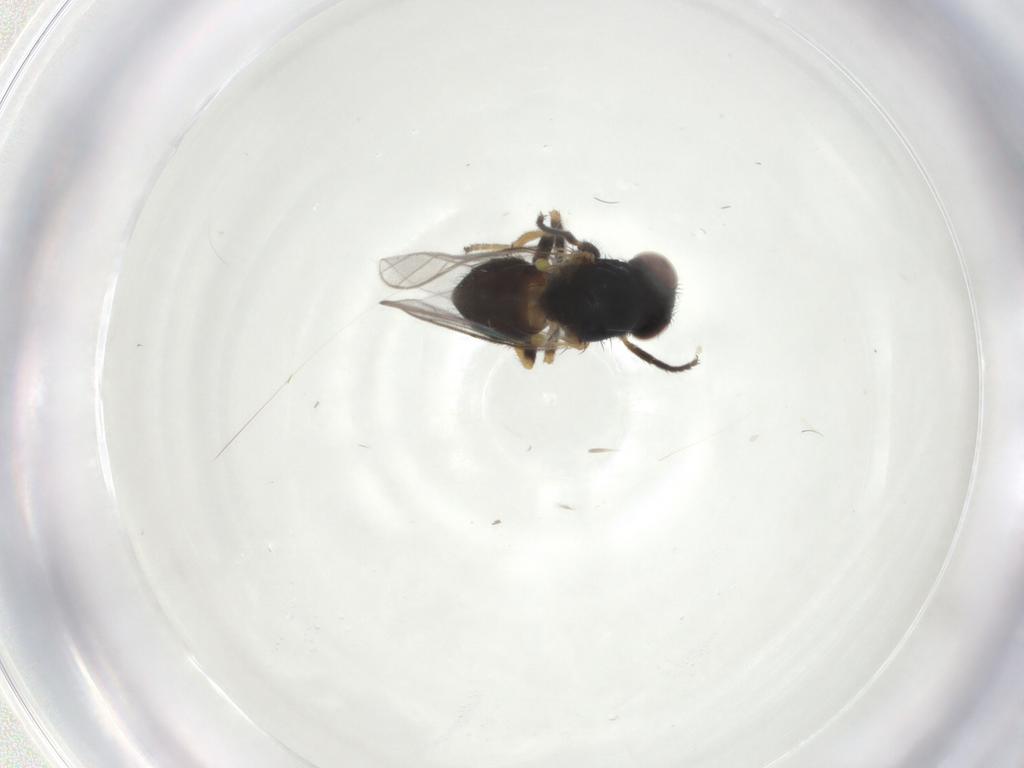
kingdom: Animalia
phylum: Arthropoda
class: Insecta
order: Diptera
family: Chloropidae
